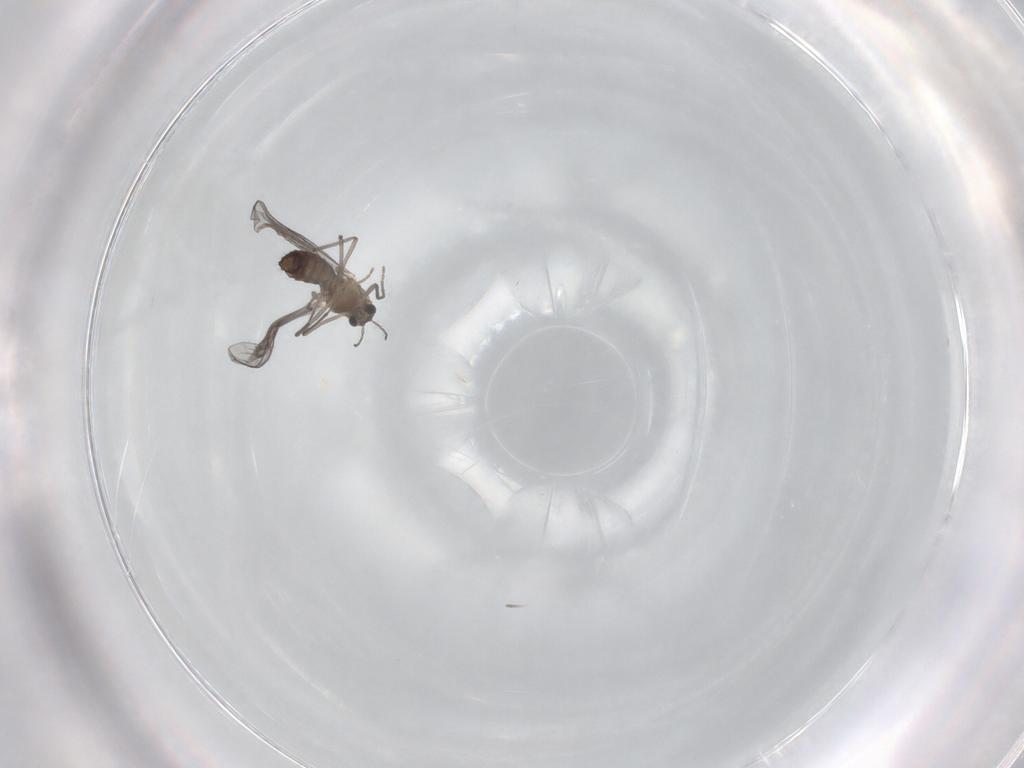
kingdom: Animalia
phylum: Arthropoda
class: Insecta
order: Diptera
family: Chironomidae
